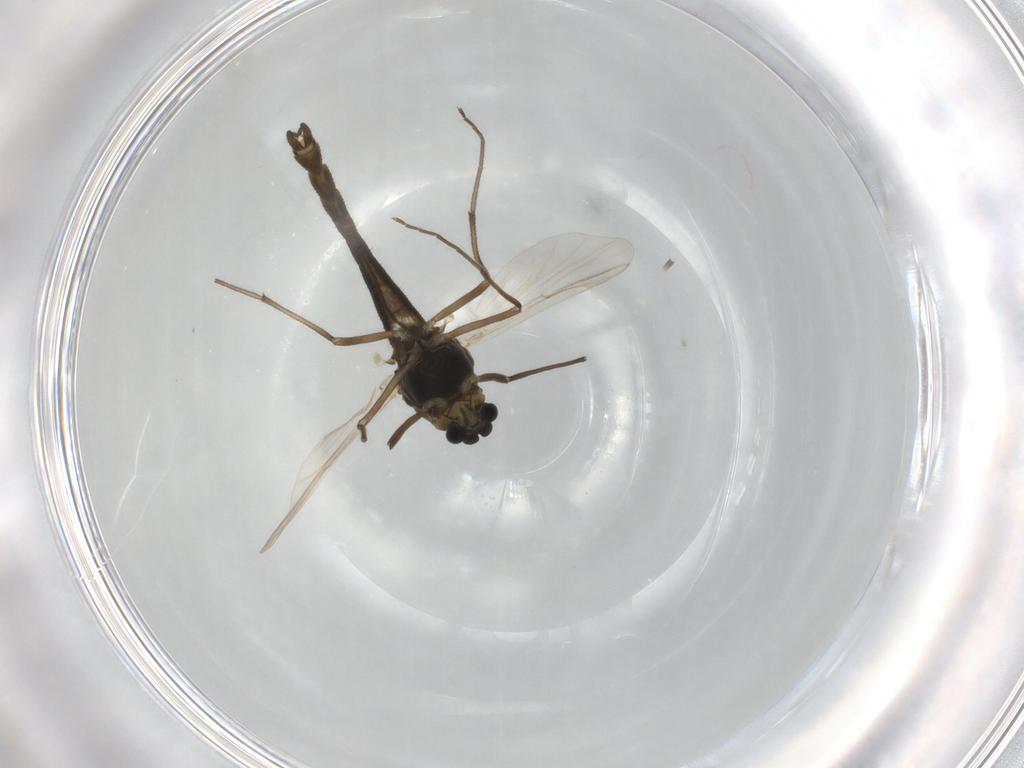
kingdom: Animalia
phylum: Arthropoda
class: Insecta
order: Diptera
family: Chironomidae
